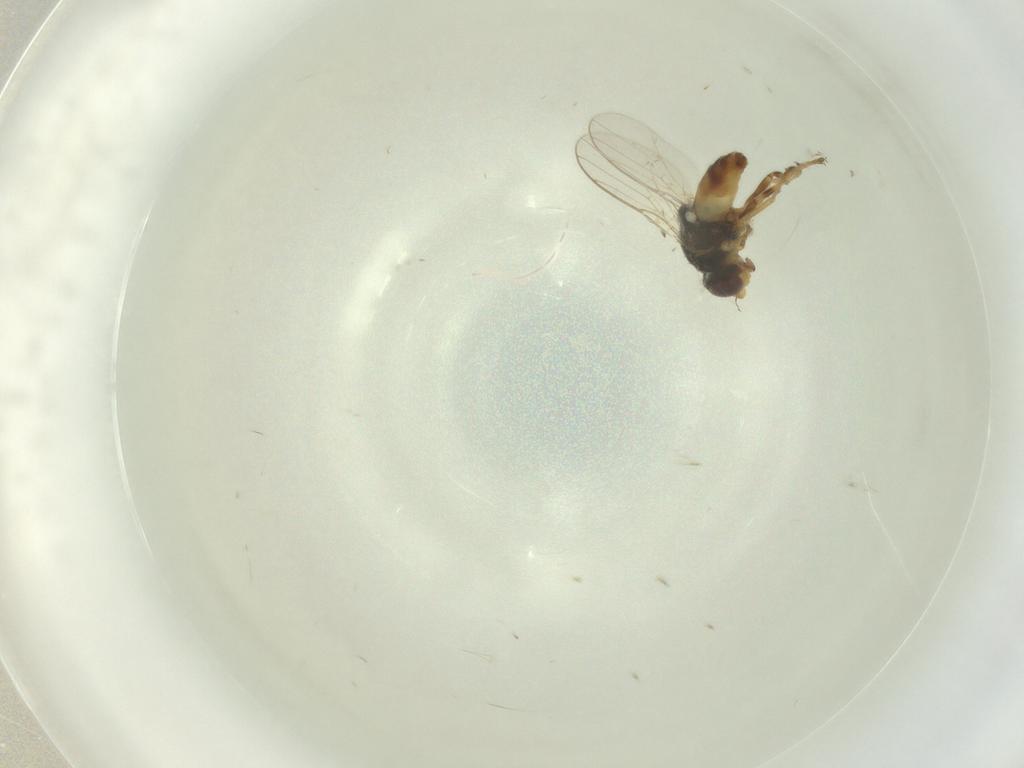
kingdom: Animalia
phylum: Arthropoda
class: Insecta
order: Diptera
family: Chloropidae
